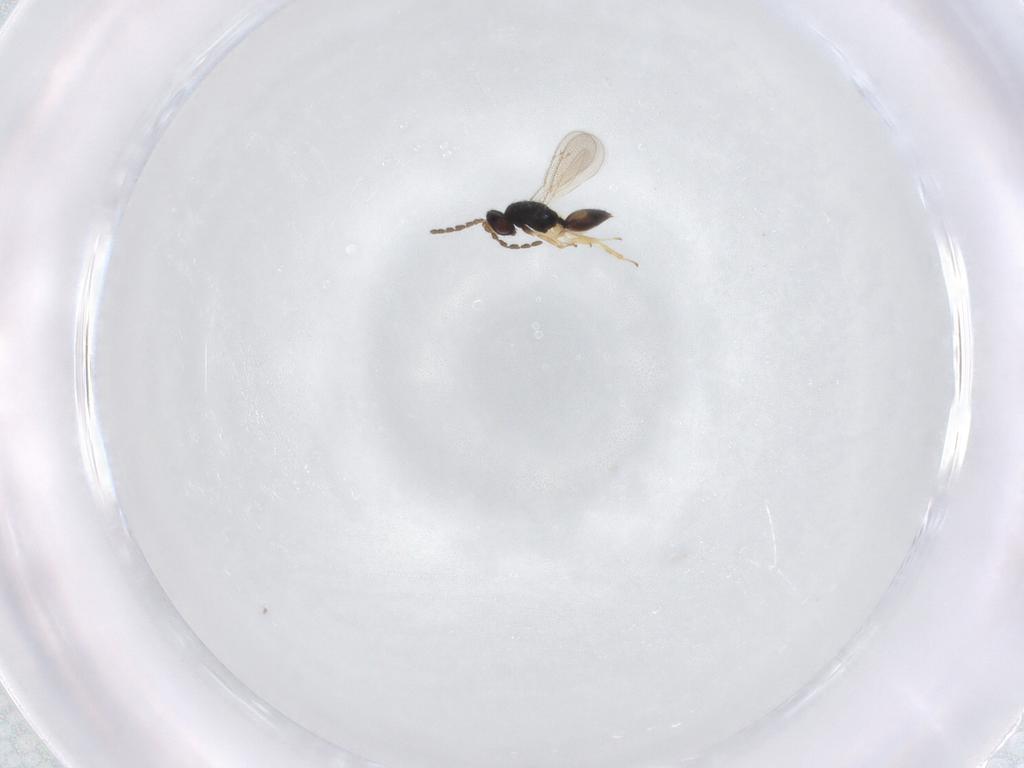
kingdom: Animalia
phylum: Arthropoda
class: Insecta
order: Hymenoptera
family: Eulophidae
